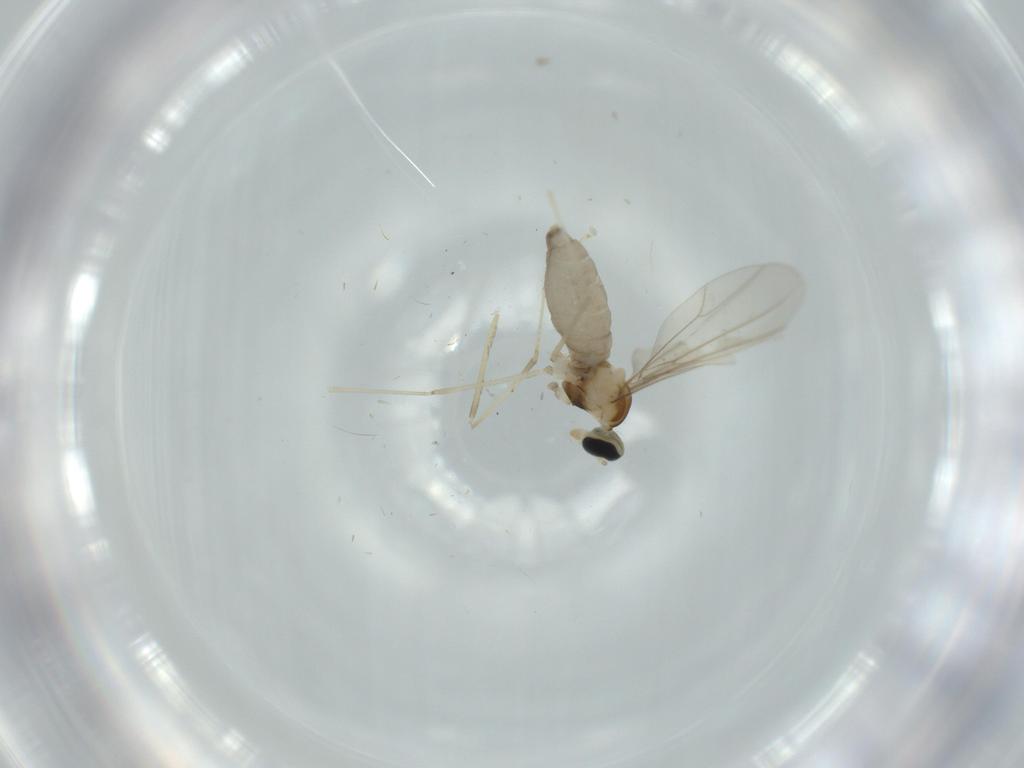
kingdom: Animalia
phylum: Arthropoda
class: Insecta
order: Diptera
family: Cecidomyiidae
